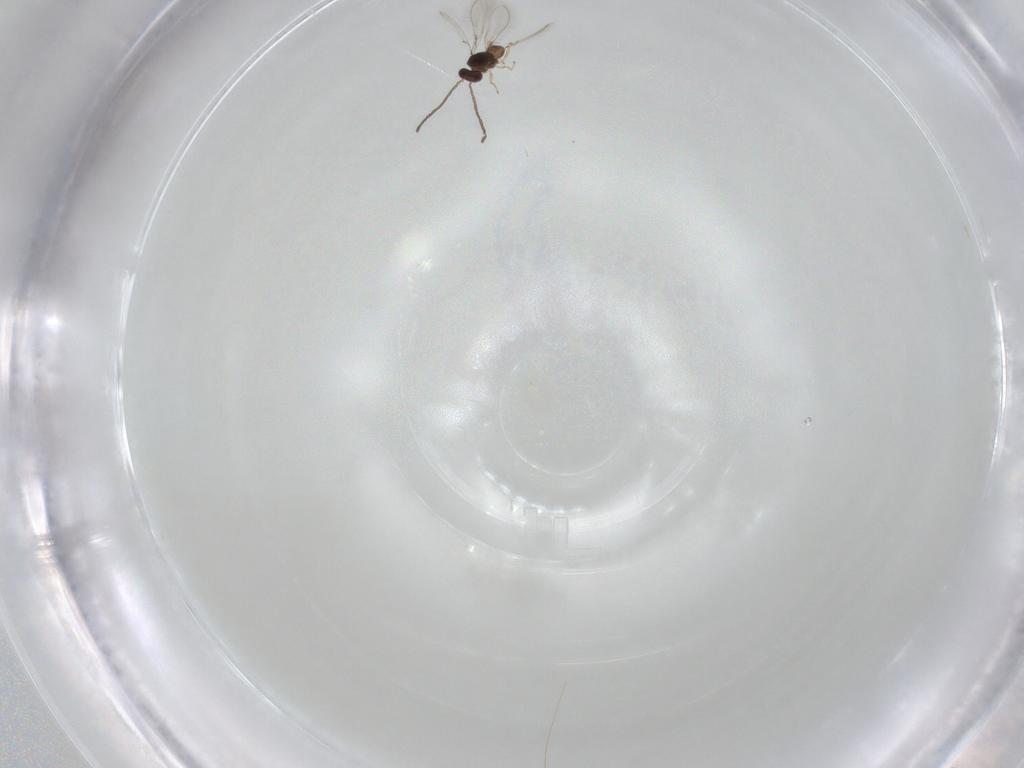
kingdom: Animalia
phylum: Arthropoda
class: Insecta
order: Hymenoptera
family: Mymaridae
